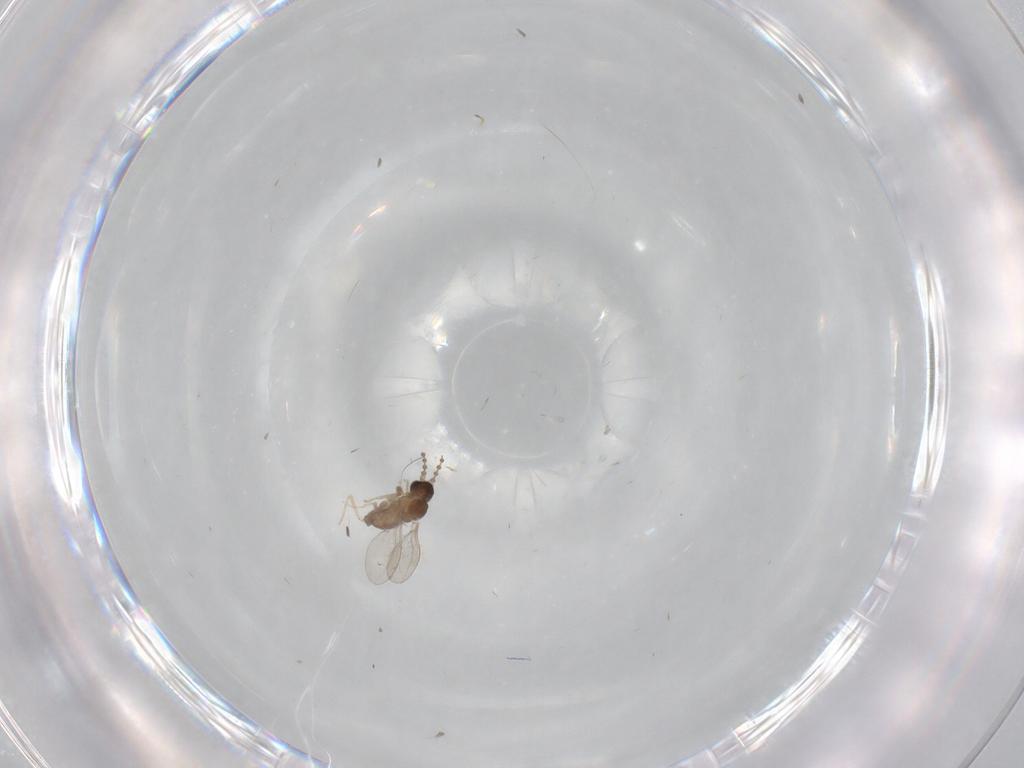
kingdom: Animalia
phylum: Arthropoda
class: Insecta
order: Diptera
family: Cecidomyiidae
